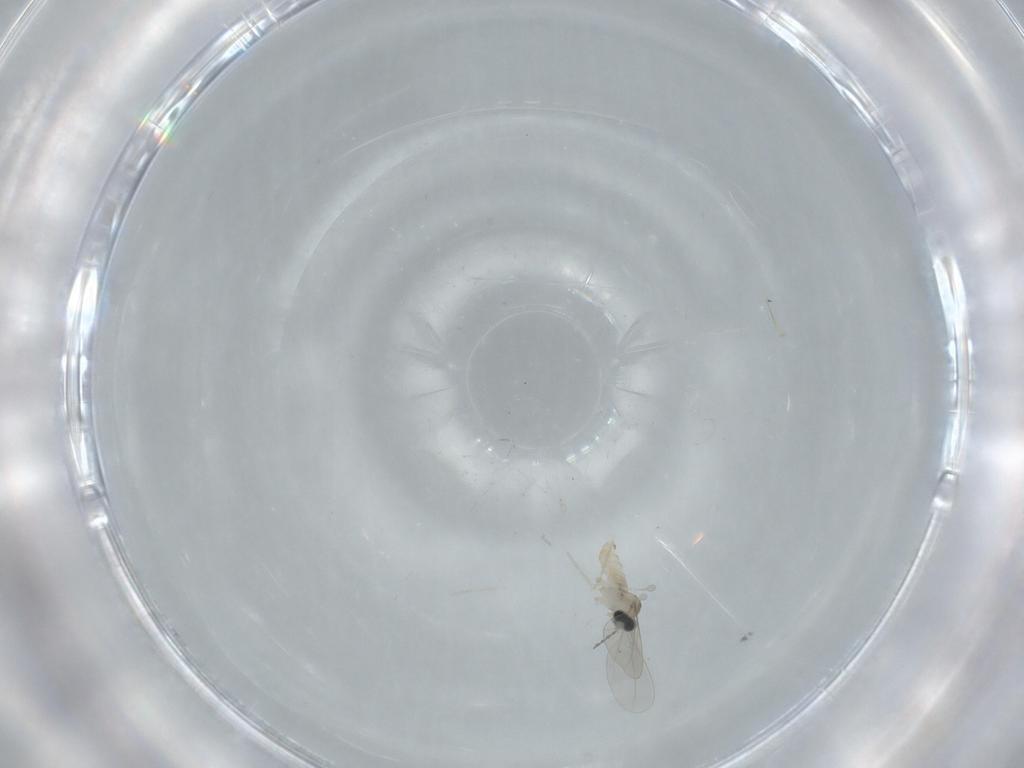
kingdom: Animalia
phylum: Arthropoda
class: Insecta
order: Diptera
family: Cecidomyiidae
